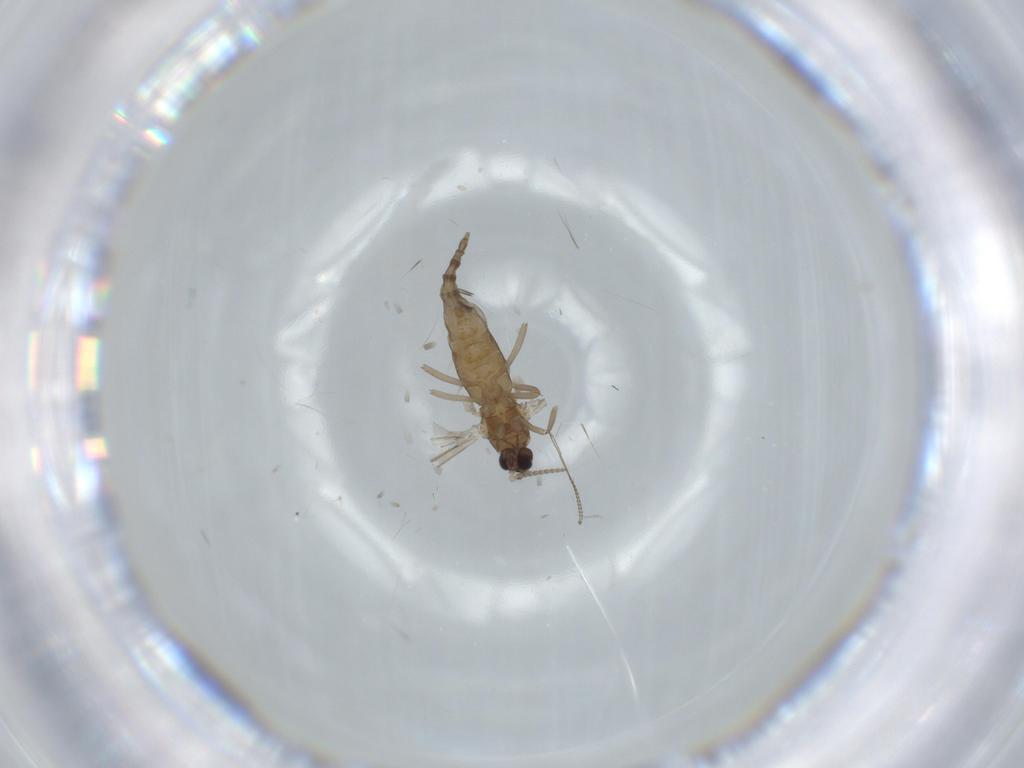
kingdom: Animalia
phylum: Arthropoda
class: Insecta
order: Diptera
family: Cecidomyiidae
